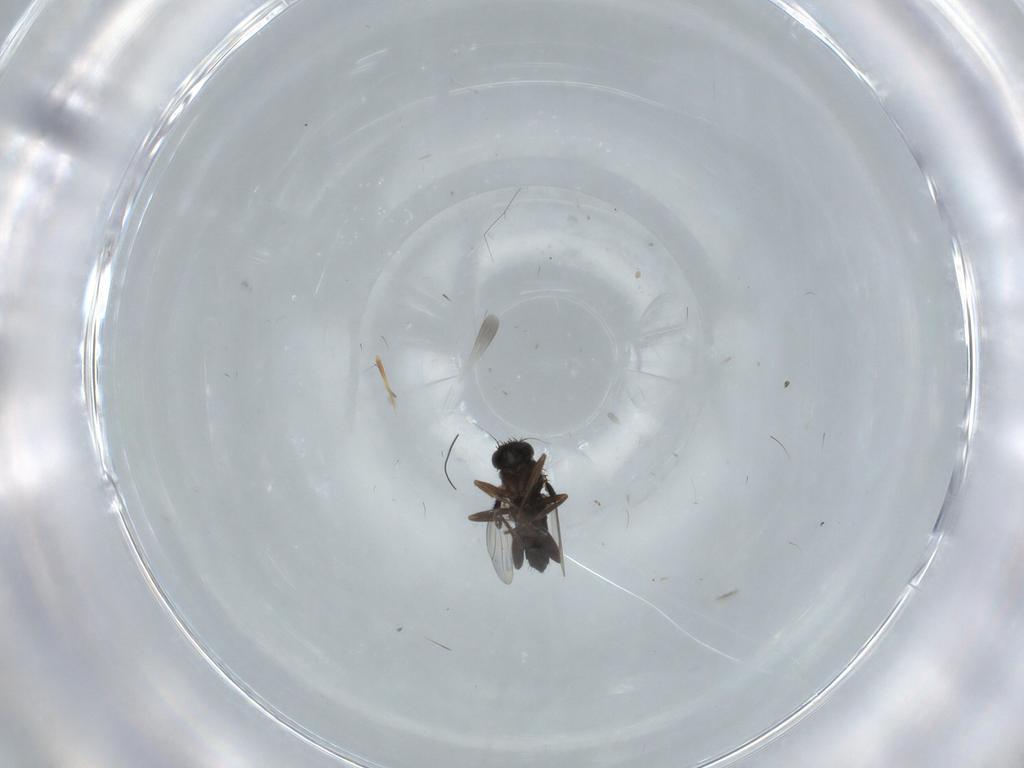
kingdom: Animalia
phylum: Arthropoda
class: Insecta
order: Diptera
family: Phoridae
